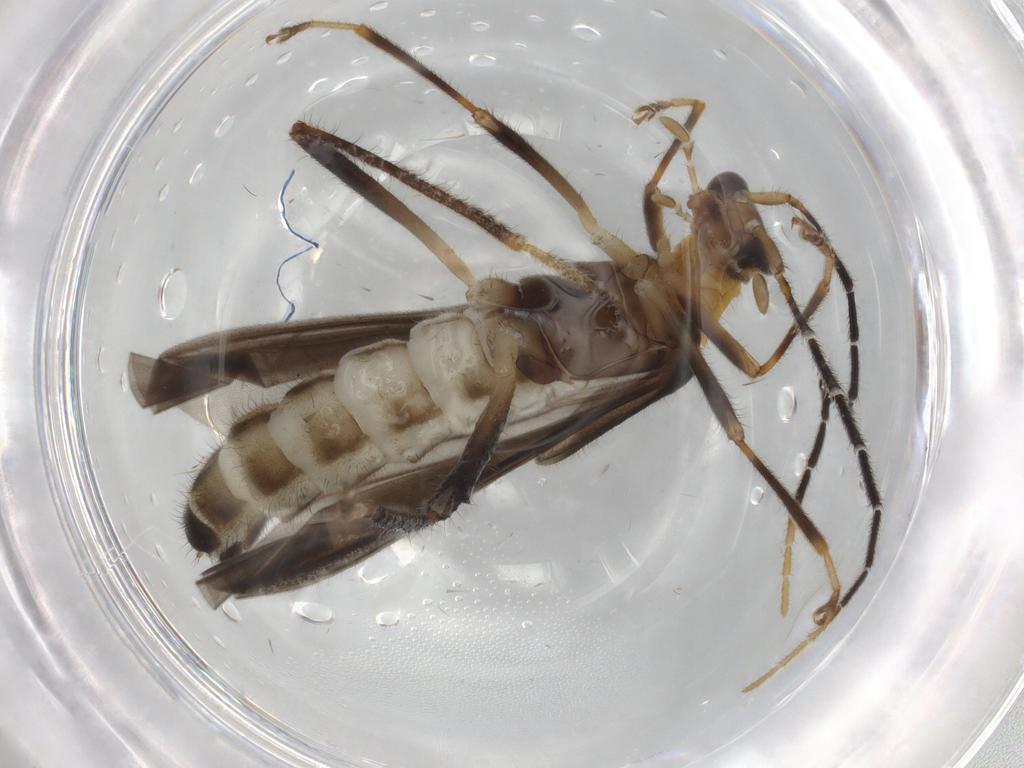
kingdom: Animalia
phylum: Arthropoda
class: Insecta
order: Coleoptera
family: Cantharidae
